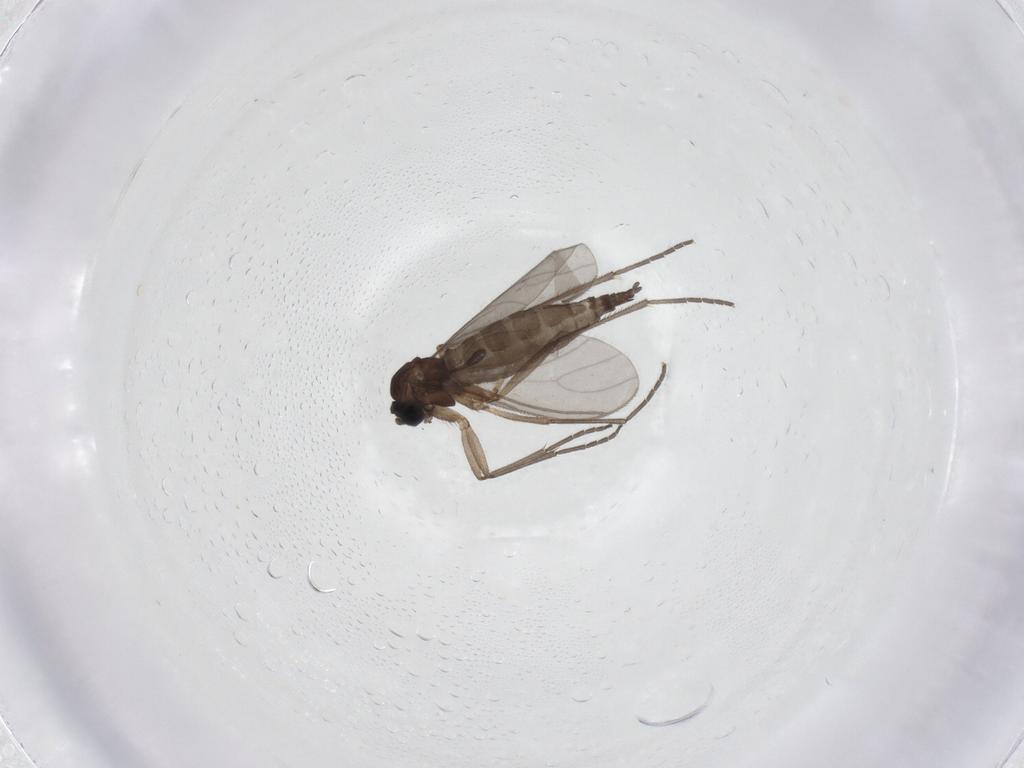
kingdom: Animalia
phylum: Arthropoda
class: Insecta
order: Diptera
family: Sciaridae
